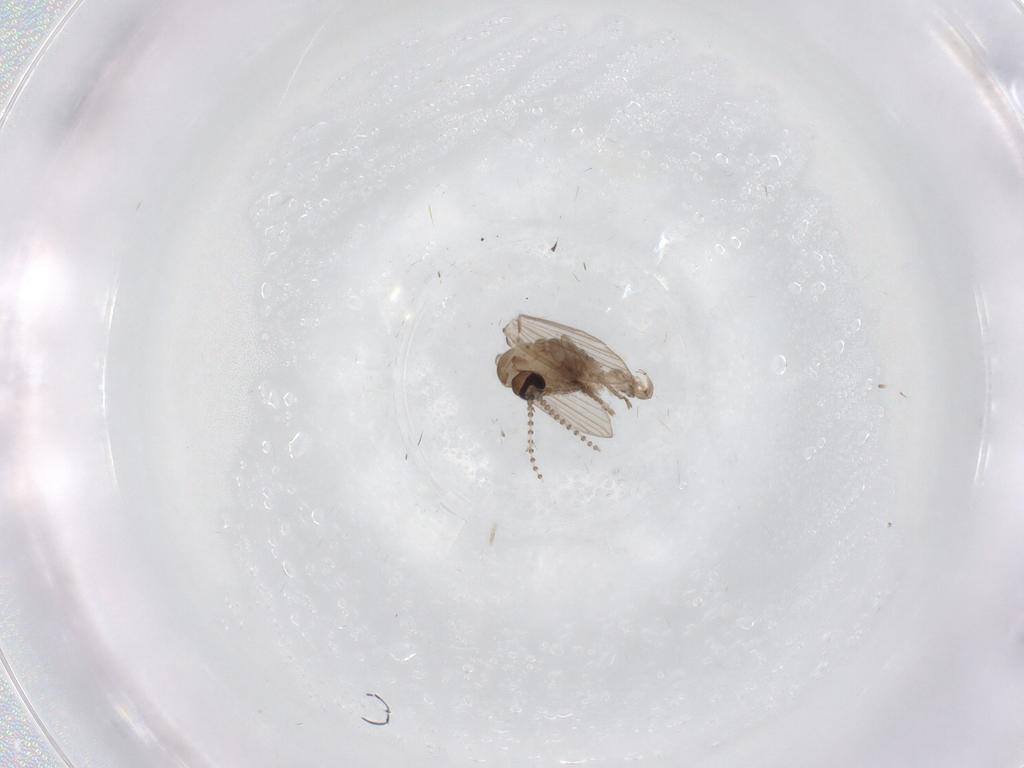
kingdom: Animalia
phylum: Arthropoda
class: Insecta
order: Diptera
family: Psychodidae
